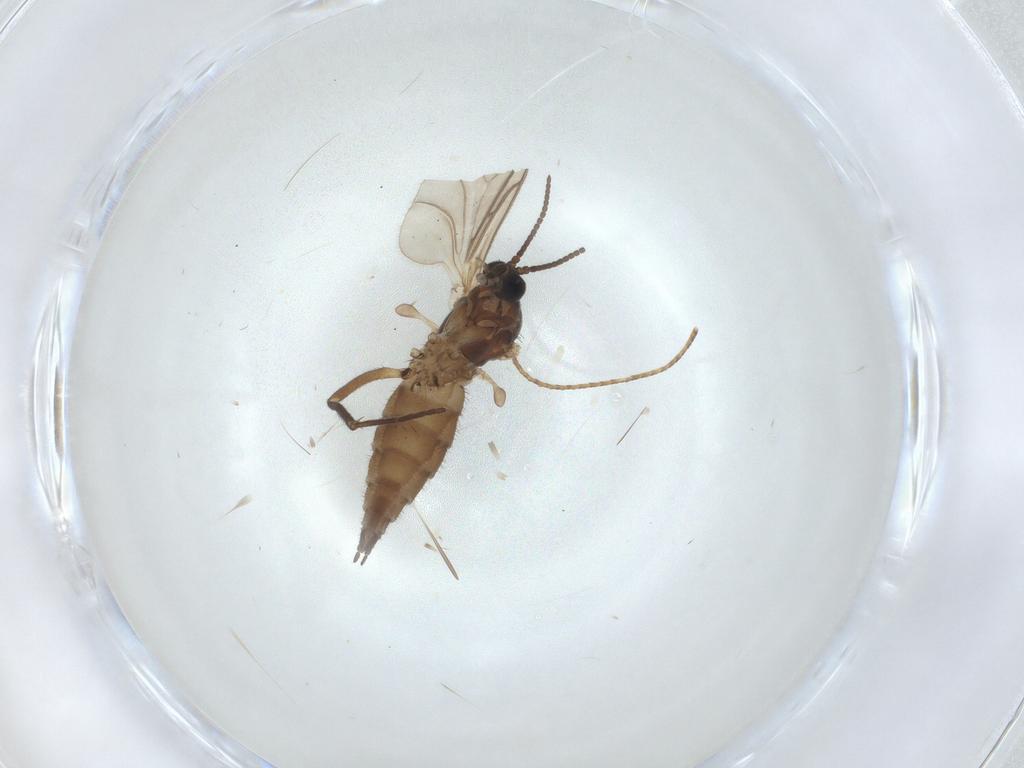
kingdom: Animalia
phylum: Arthropoda
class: Insecta
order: Diptera
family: Sciaridae
